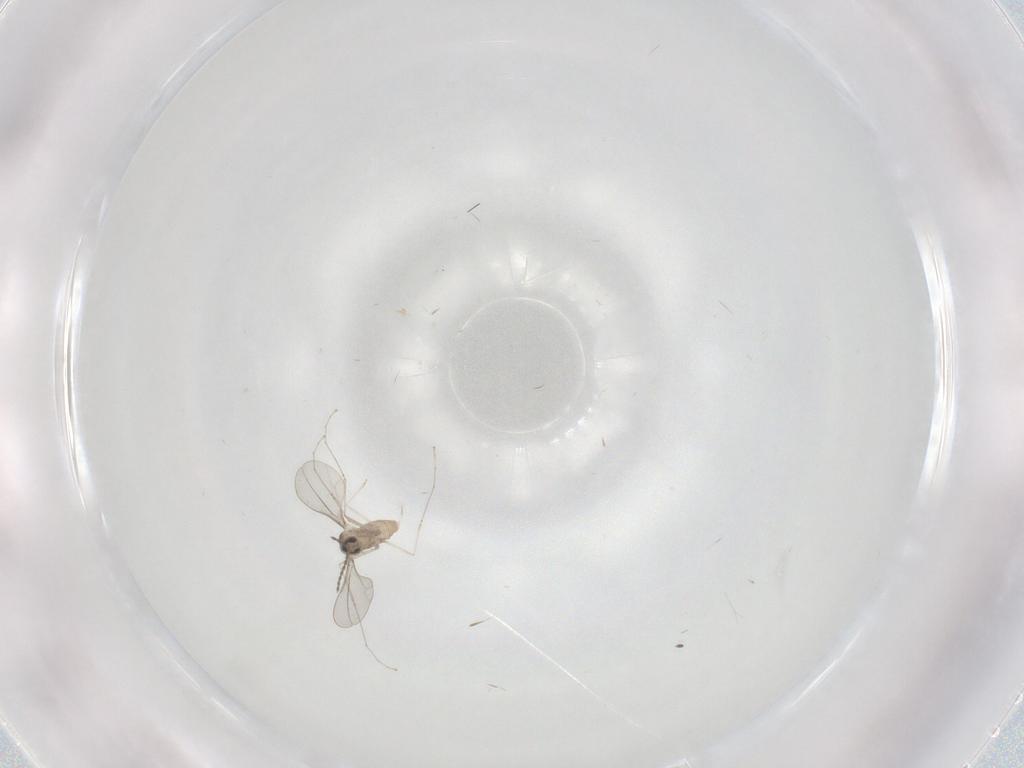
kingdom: Animalia
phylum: Arthropoda
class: Insecta
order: Diptera
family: Cecidomyiidae
